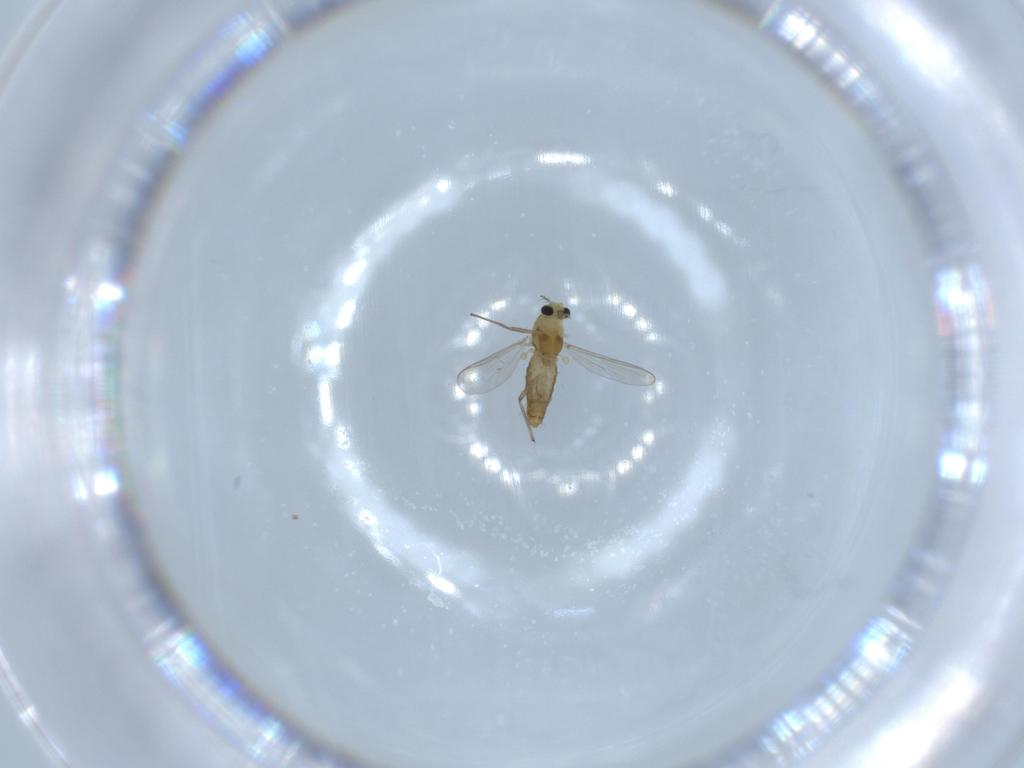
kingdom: Animalia
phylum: Arthropoda
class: Insecta
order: Diptera
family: Chironomidae
